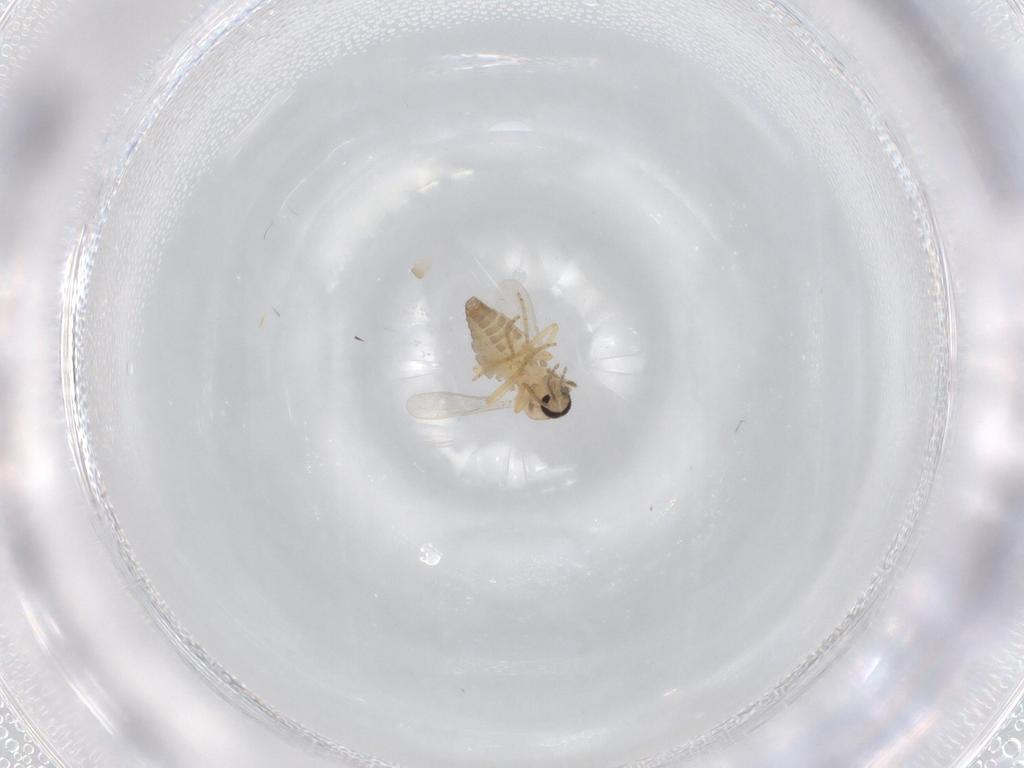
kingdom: Animalia
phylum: Arthropoda
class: Insecta
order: Diptera
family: Ceratopogonidae
